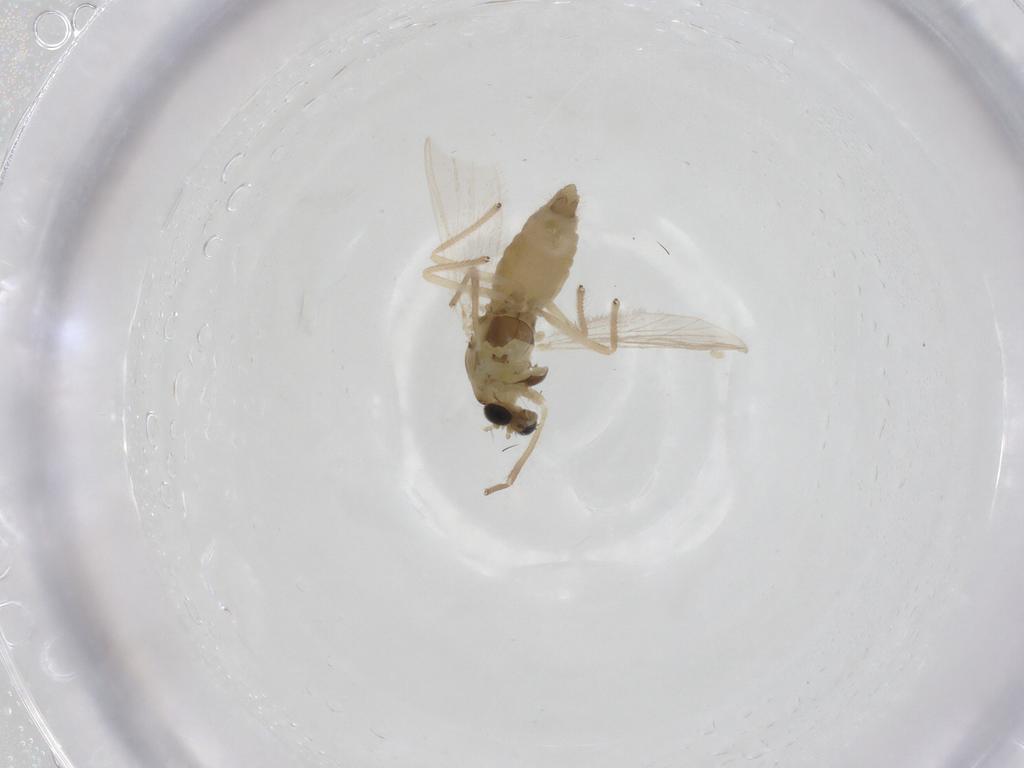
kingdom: Animalia
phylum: Arthropoda
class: Insecta
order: Diptera
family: Chironomidae
